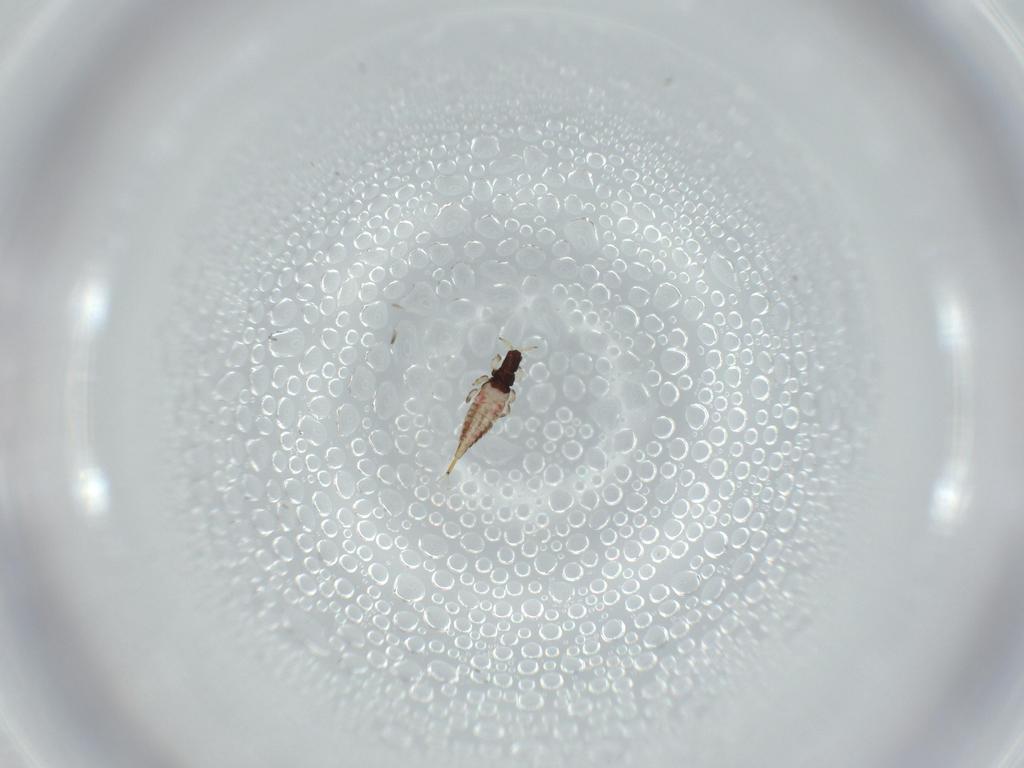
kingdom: Animalia
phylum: Arthropoda
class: Insecta
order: Thysanoptera
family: Phlaeothripidae
